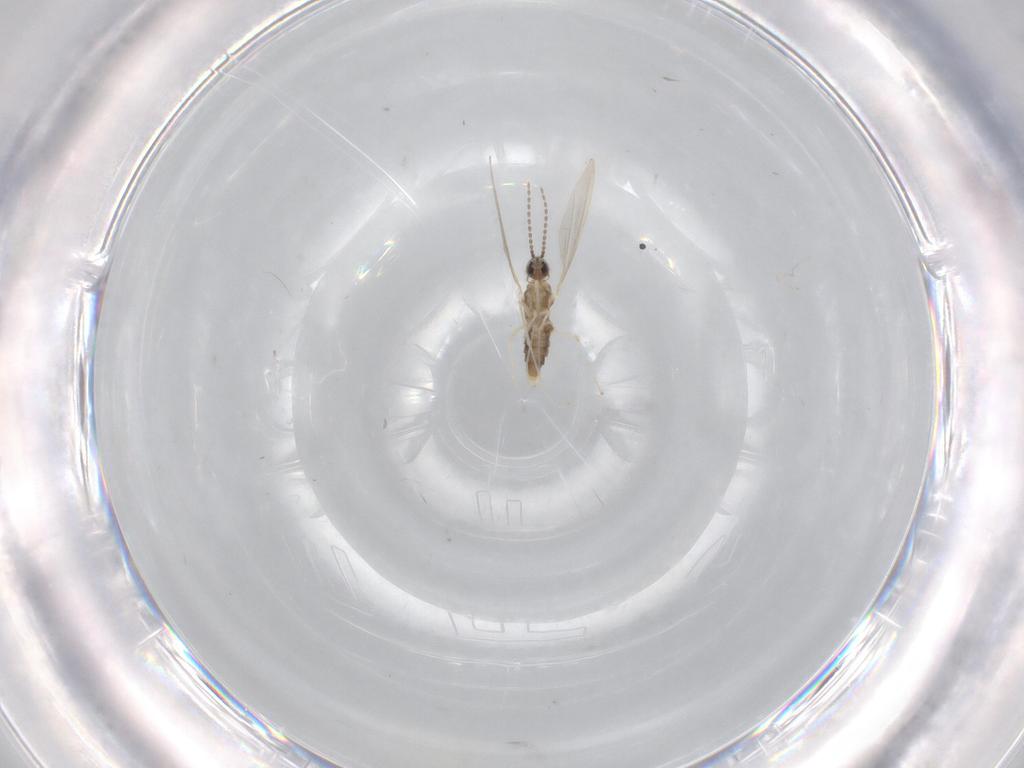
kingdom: Animalia
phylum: Arthropoda
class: Insecta
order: Diptera
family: Cecidomyiidae
